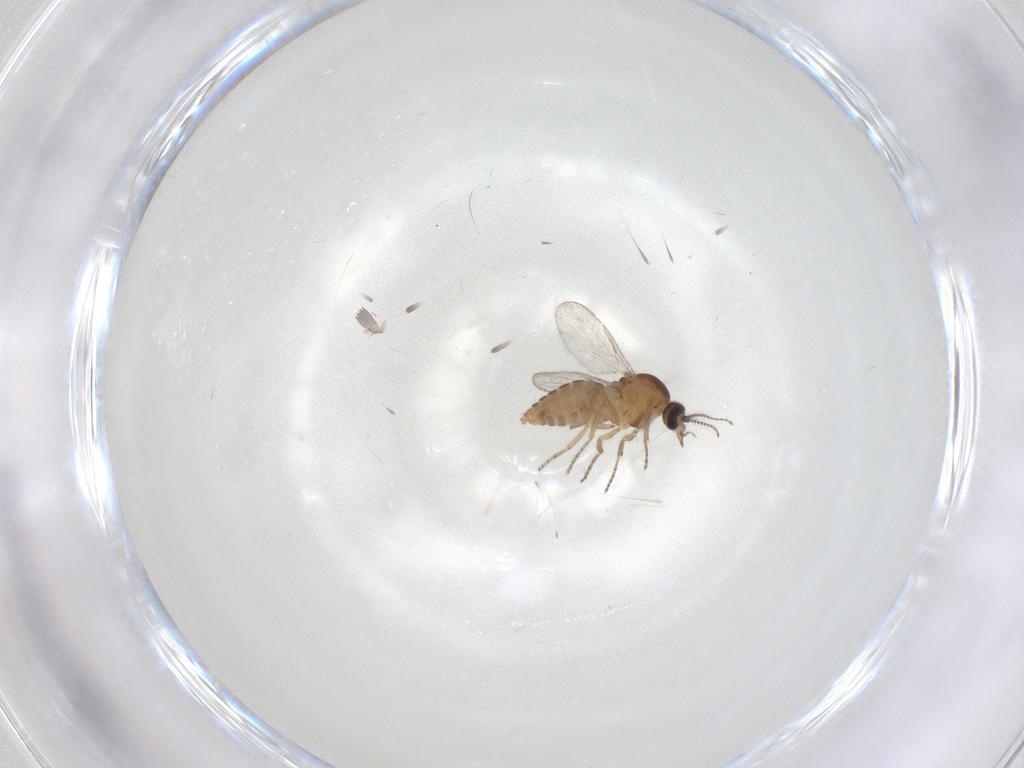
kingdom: Animalia
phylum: Arthropoda
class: Insecta
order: Diptera
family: Ceratopogonidae
